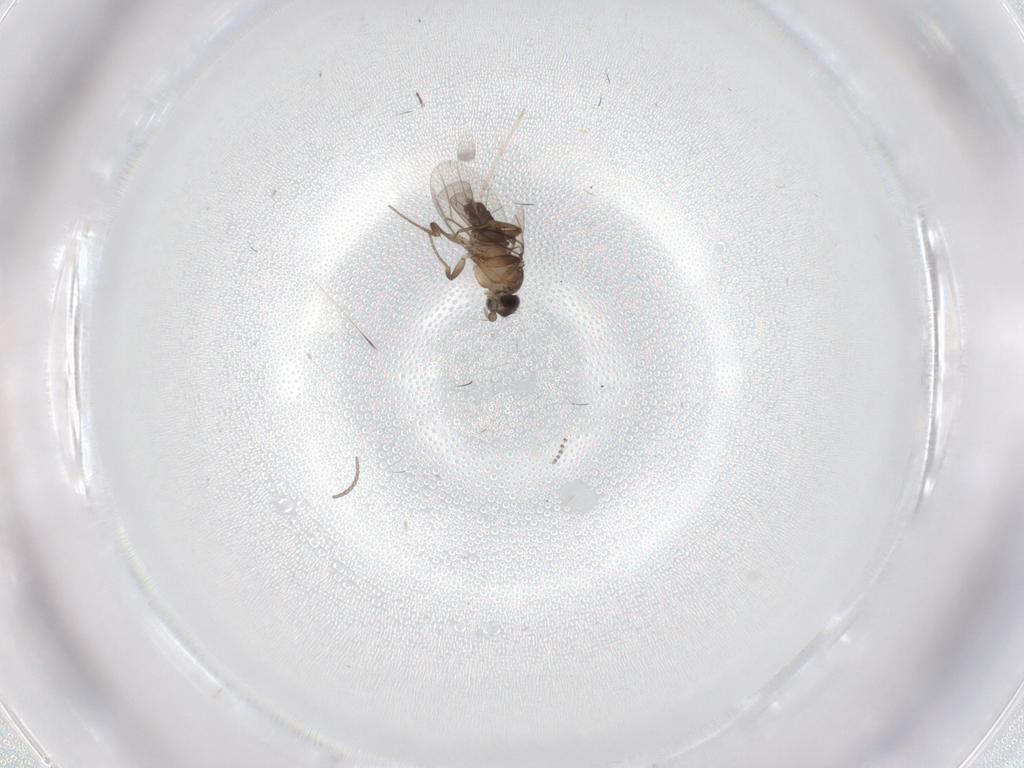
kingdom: Animalia
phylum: Arthropoda
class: Insecta
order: Diptera
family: Phoridae
